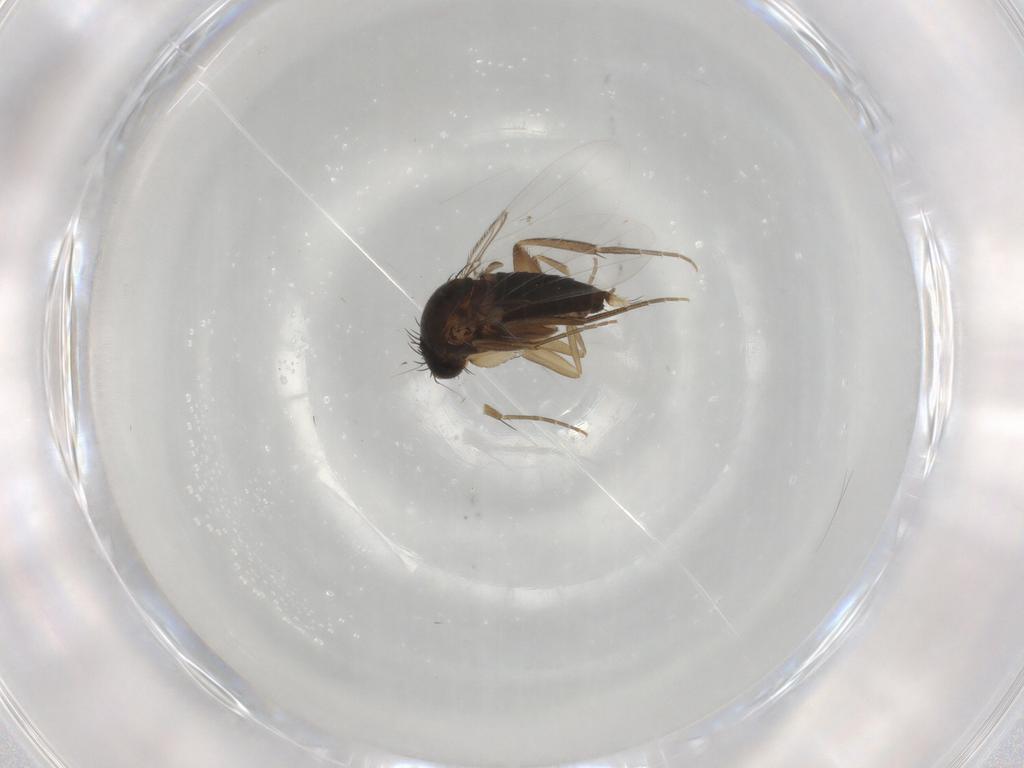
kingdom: Animalia
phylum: Arthropoda
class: Insecta
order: Diptera
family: Phoridae
